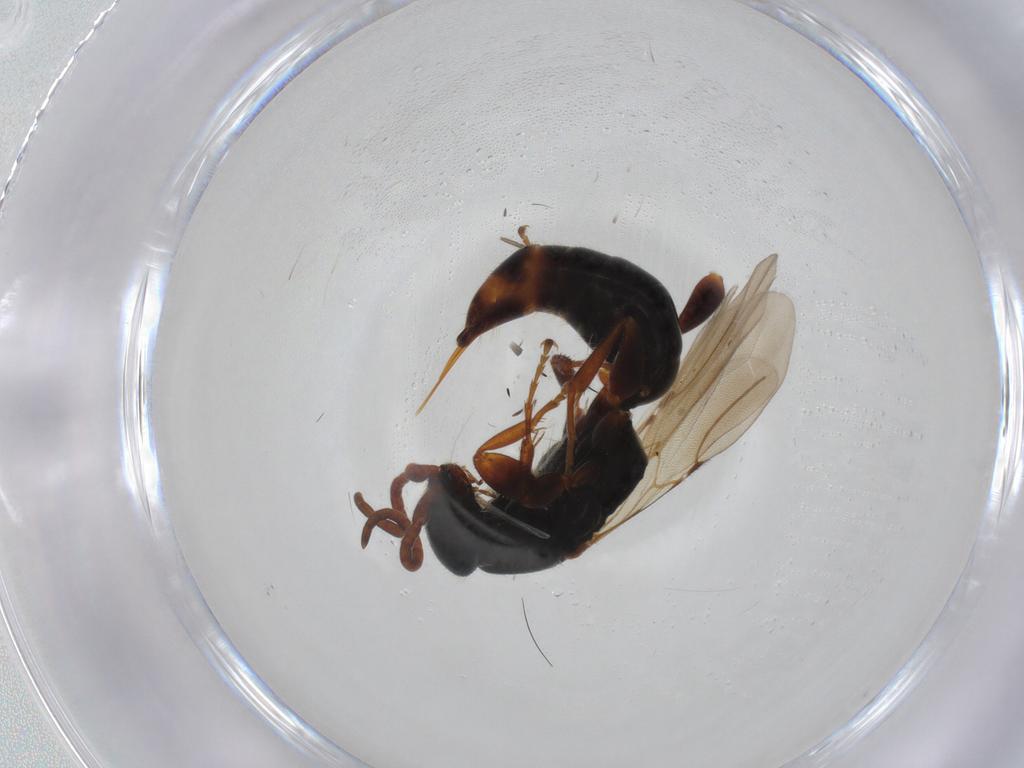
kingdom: Animalia
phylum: Arthropoda
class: Insecta
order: Hymenoptera
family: Bethylidae
